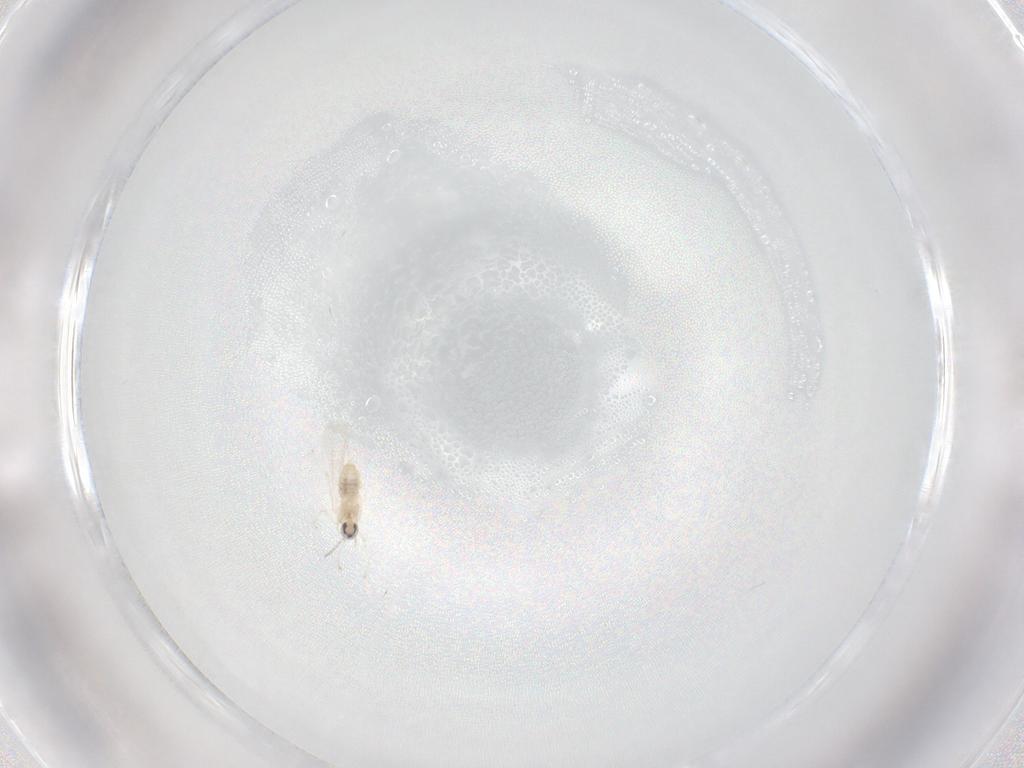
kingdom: Animalia
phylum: Arthropoda
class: Insecta
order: Diptera
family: Cecidomyiidae
